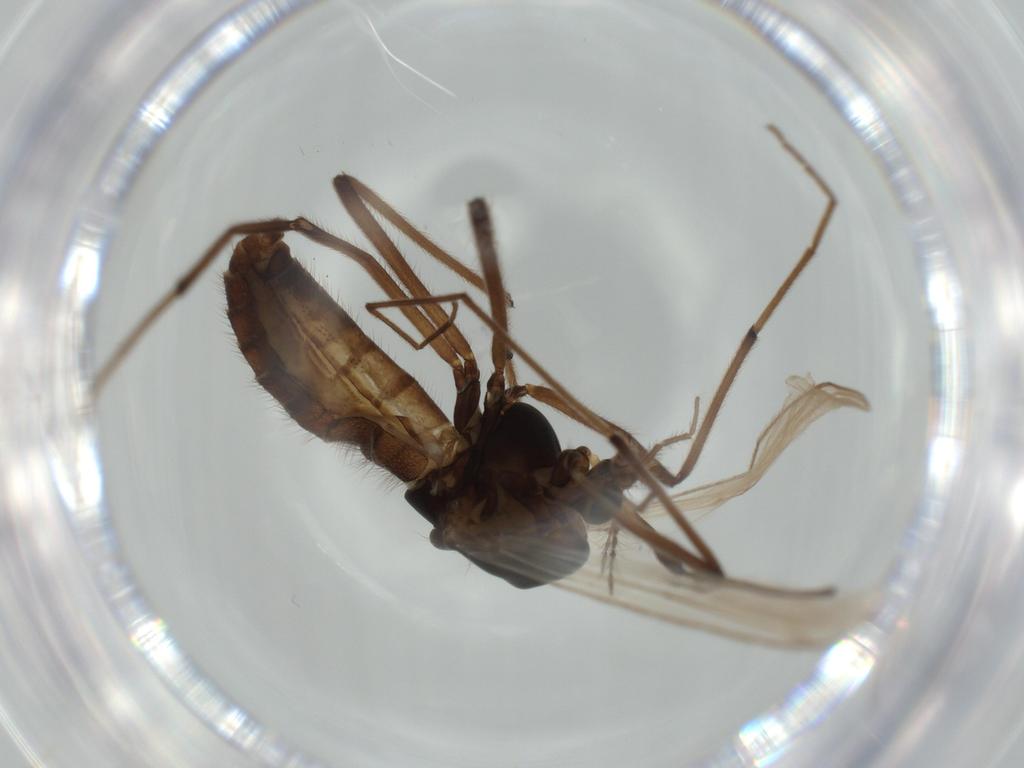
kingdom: Animalia
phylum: Arthropoda
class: Insecta
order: Diptera
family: Chironomidae
